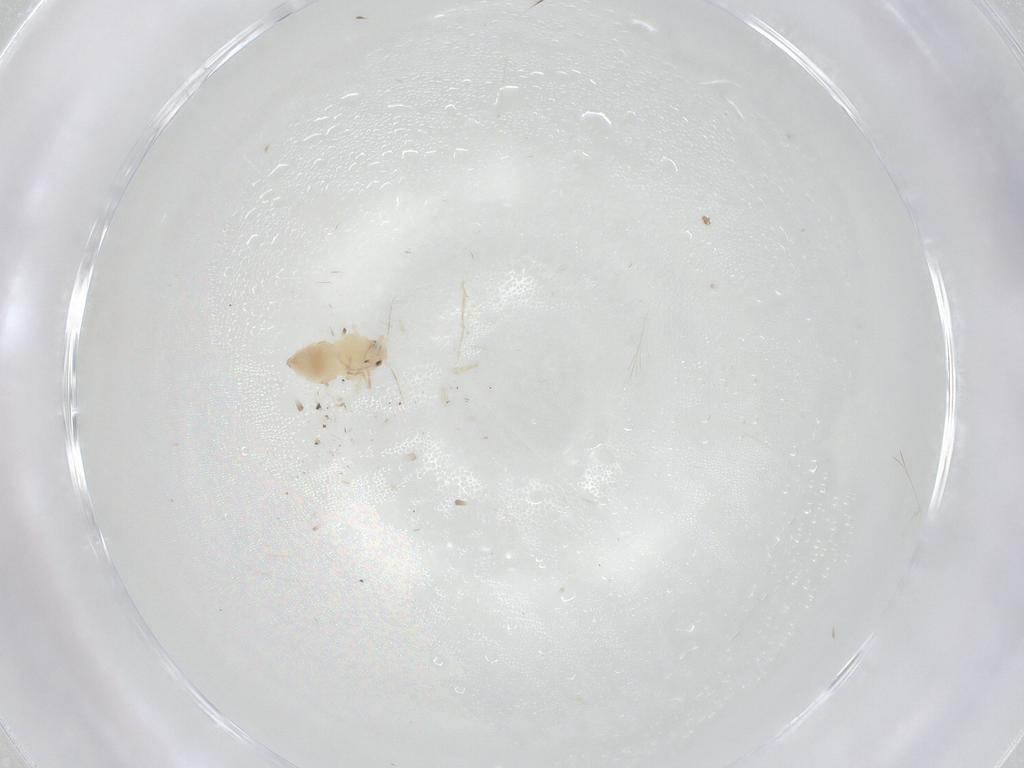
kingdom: Animalia
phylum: Arthropoda
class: Insecta
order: Hemiptera
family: Aleyrodidae
